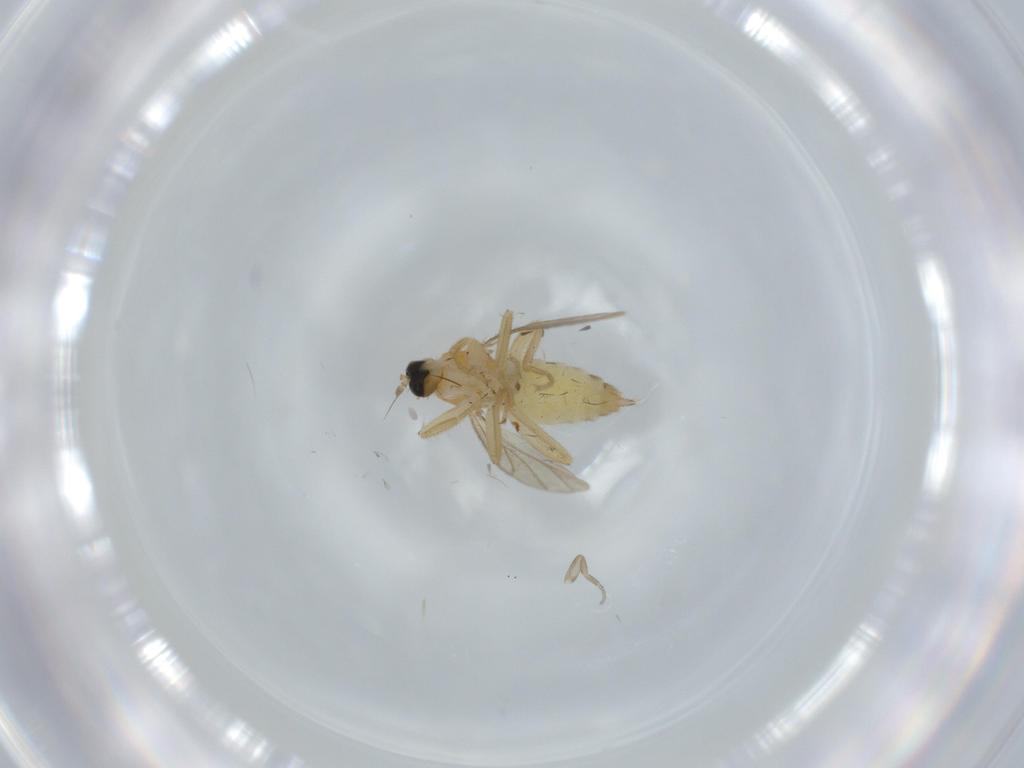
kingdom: Animalia
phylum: Arthropoda
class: Insecta
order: Diptera
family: Hybotidae
